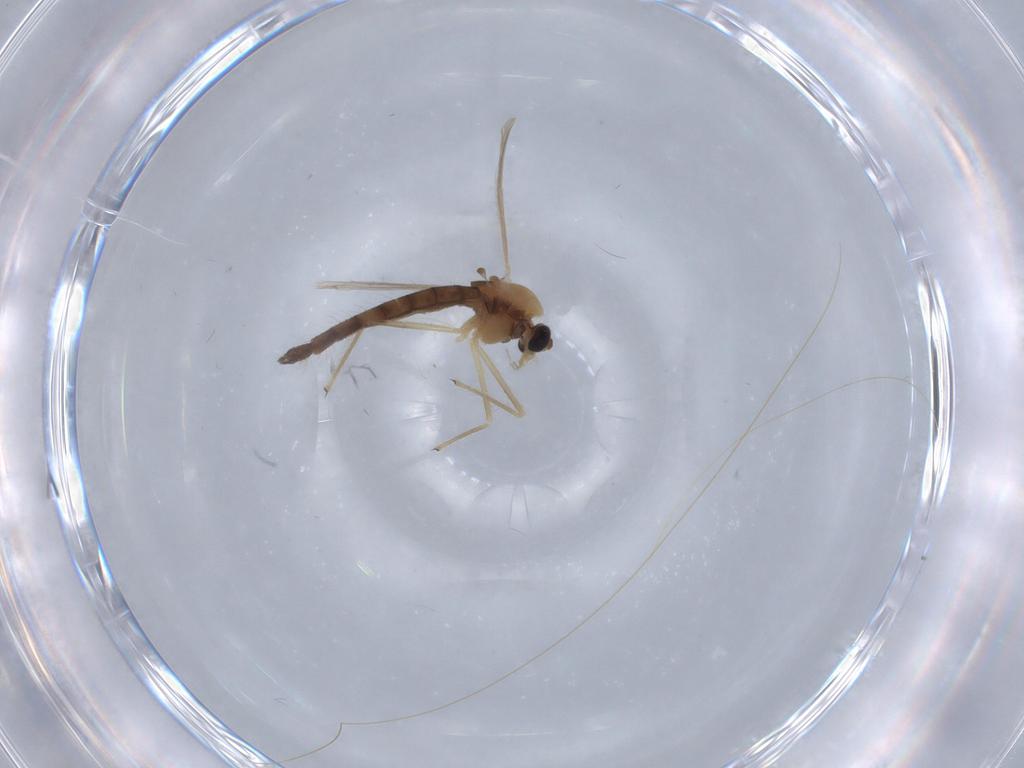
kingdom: Animalia
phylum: Arthropoda
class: Insecta
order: Diptera
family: Chironomidae
